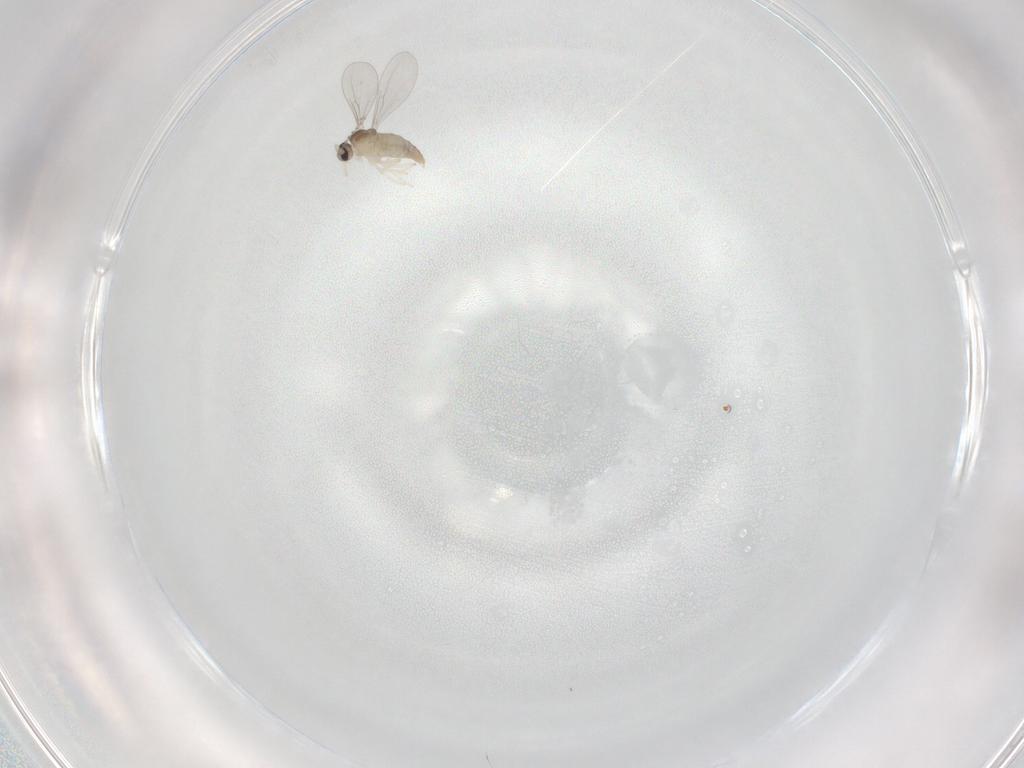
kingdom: Animalia
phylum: Arthropoda
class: Insecta
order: Diptera
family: Cecidomyiidae
